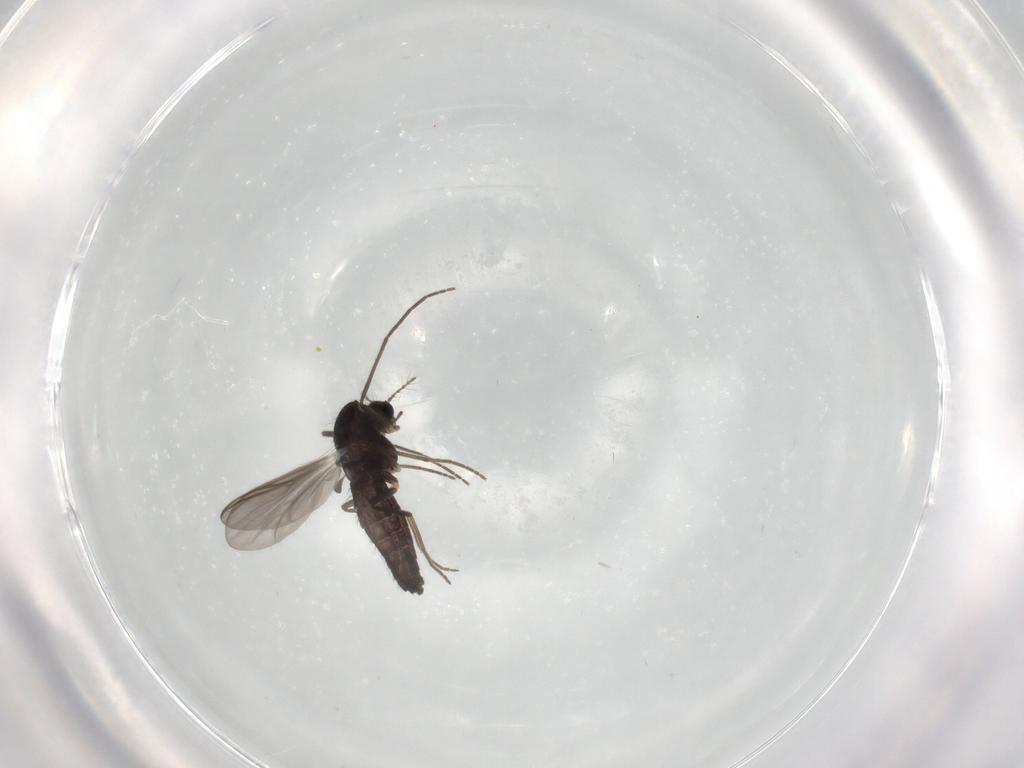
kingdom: Animalia
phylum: Arthropoda
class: Insecta
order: Diptera
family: Chironomidae
